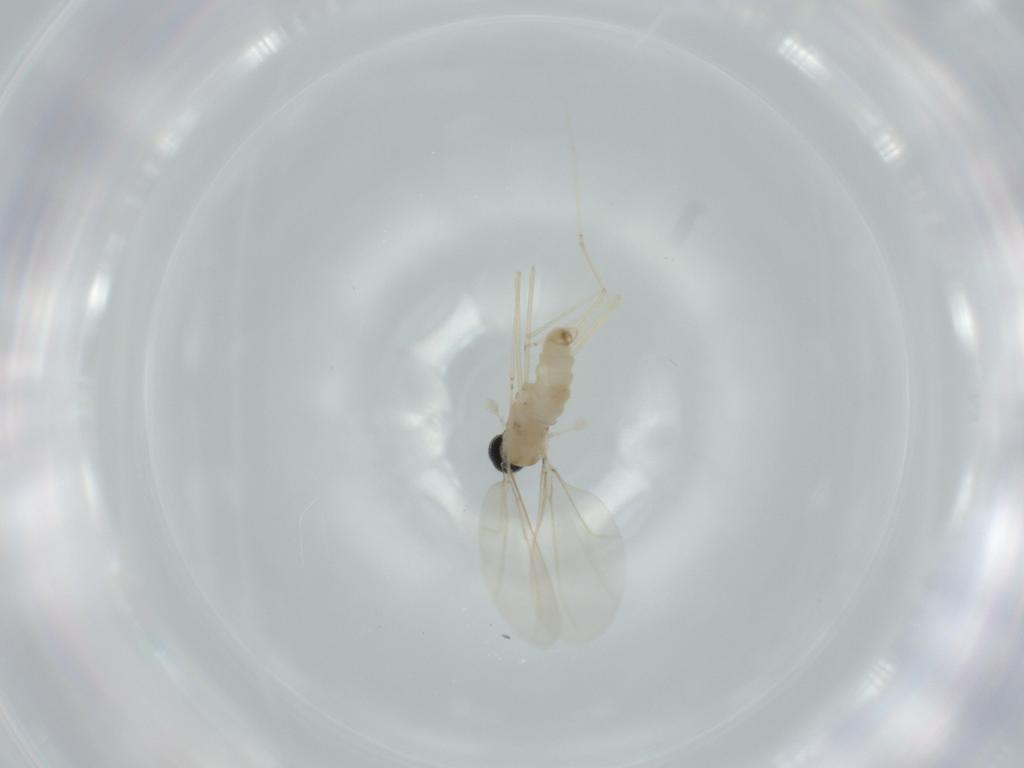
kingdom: Animalia
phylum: Arthropoda
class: Insecta
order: Diptera
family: Cecidomyiidae
